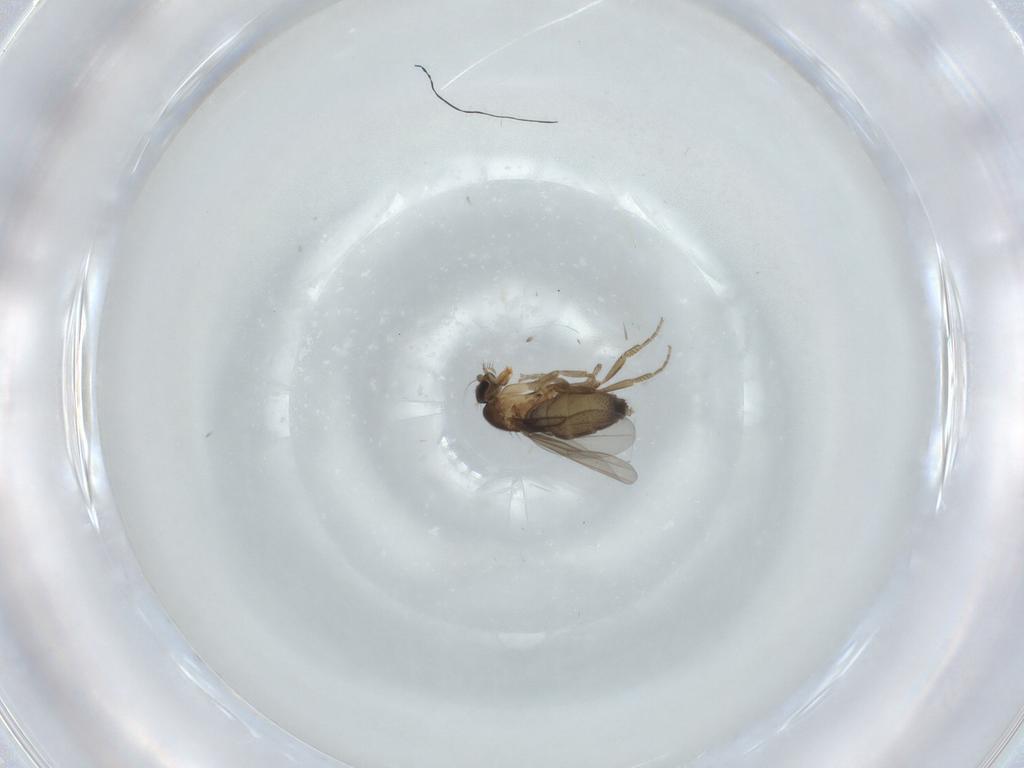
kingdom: Animalia
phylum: Arthropoda
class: Insecta
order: Diptera
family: Phoridae
